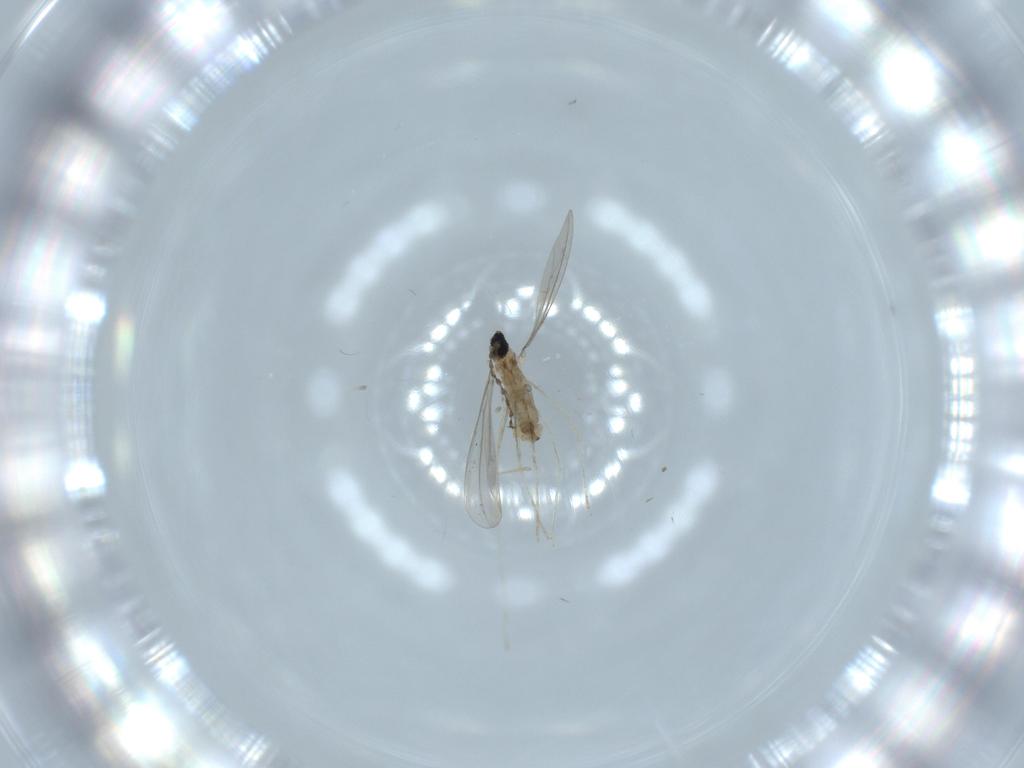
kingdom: Animalia
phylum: Arthropoda
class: Insecta
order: Diptera
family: Cecidomyiidae
